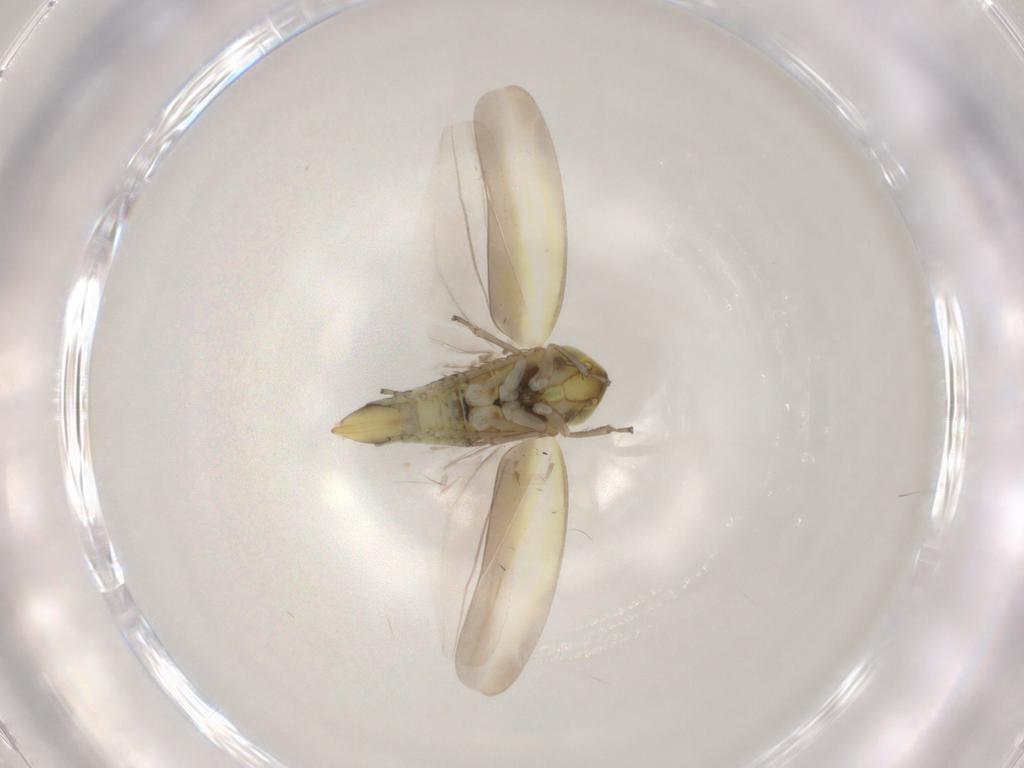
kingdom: Animalia
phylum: Arthropoda
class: Insecta
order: Hemiptera
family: Cicadellidae
